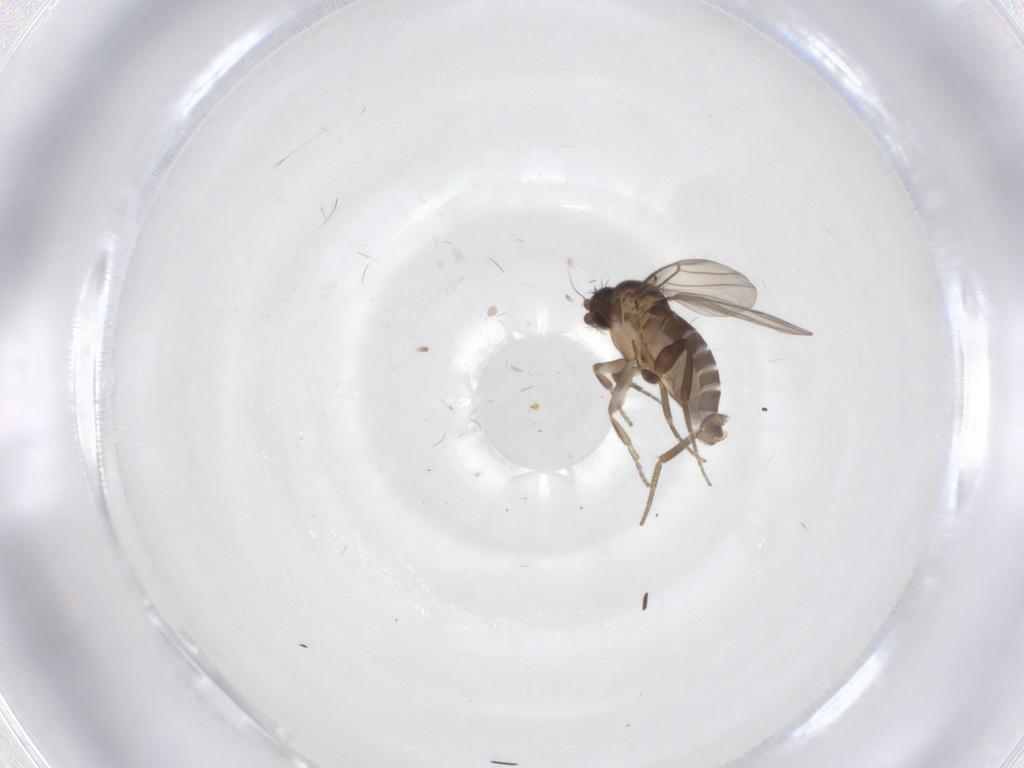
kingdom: Animalia
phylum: Arthropoda
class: Insecta
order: Diptera
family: Phoridae
